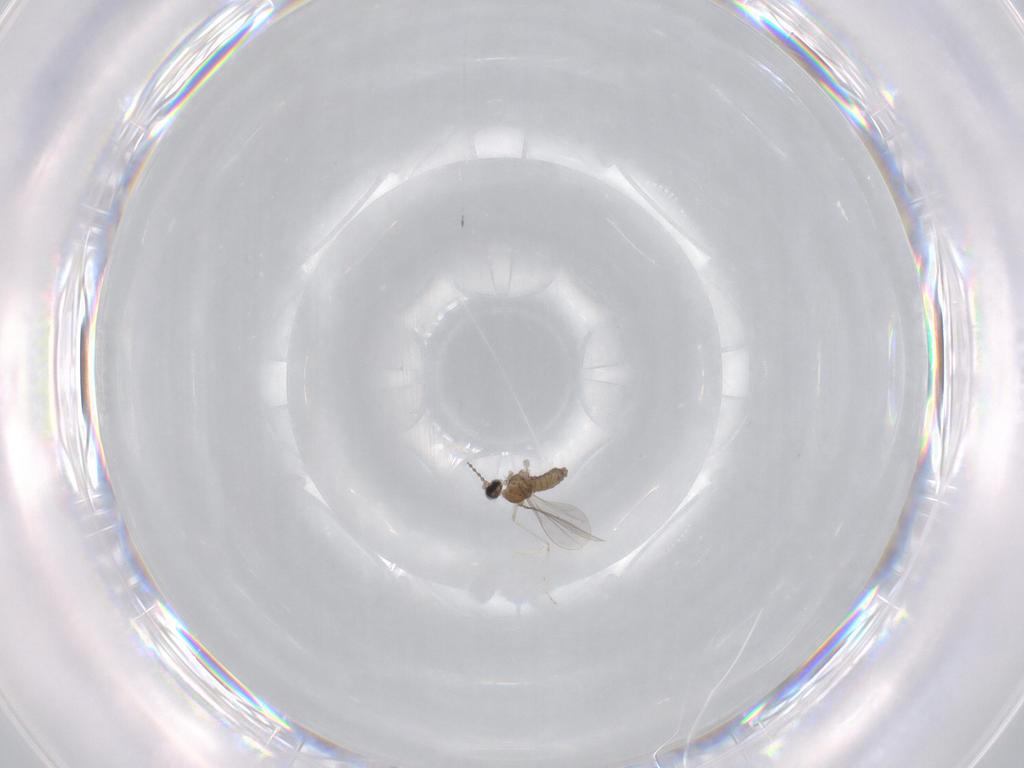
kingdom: Animalia
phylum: Arthropoda
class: Insecta
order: Diptera
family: Cecidomyiidae
